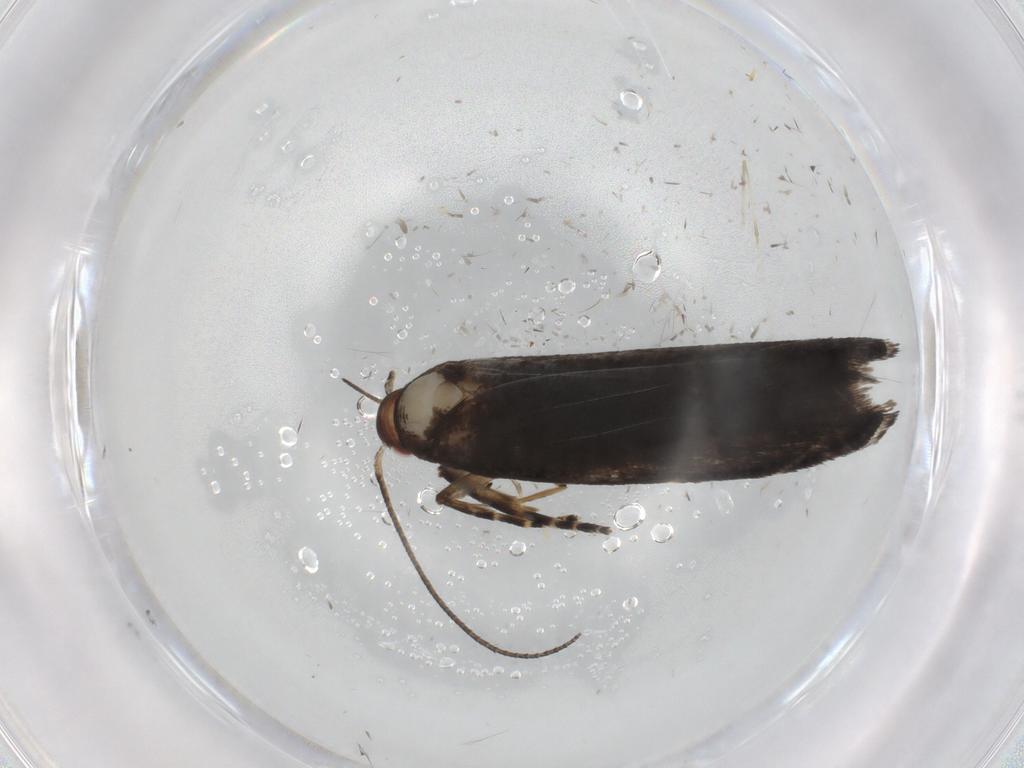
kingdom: Animalia
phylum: Arthropoda
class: Insecta
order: Lepidoptera
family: Gelechiidae
